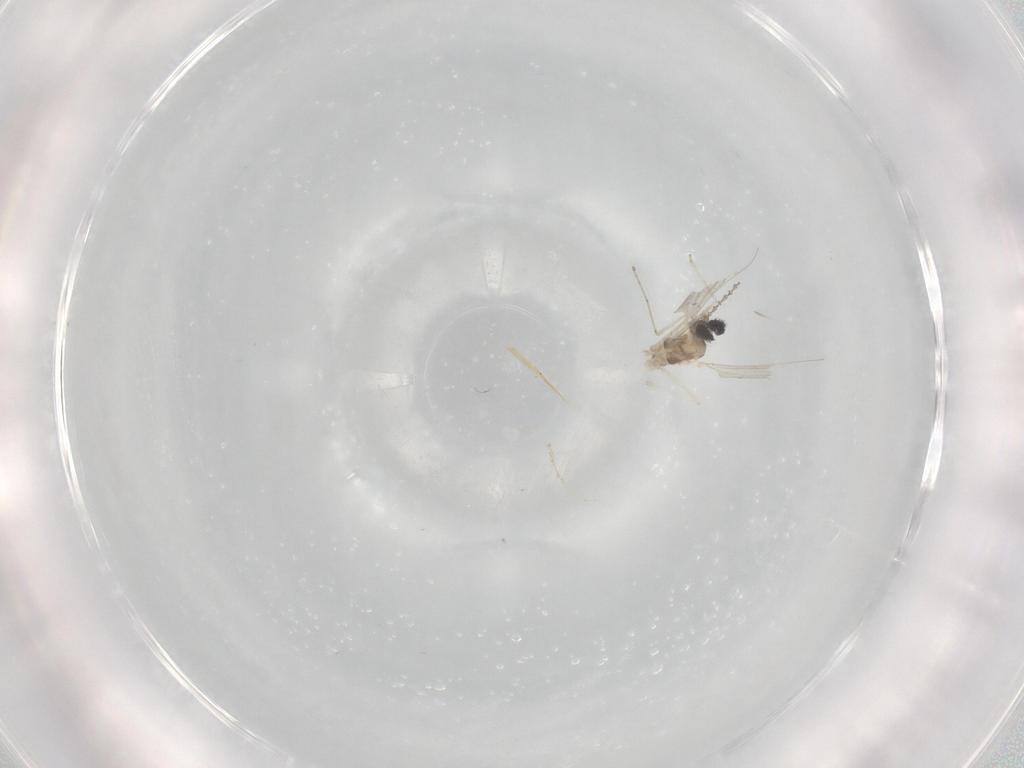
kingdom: Animalia
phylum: Arthropoda
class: Insecta
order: Diptera
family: Cecidomyiidae
